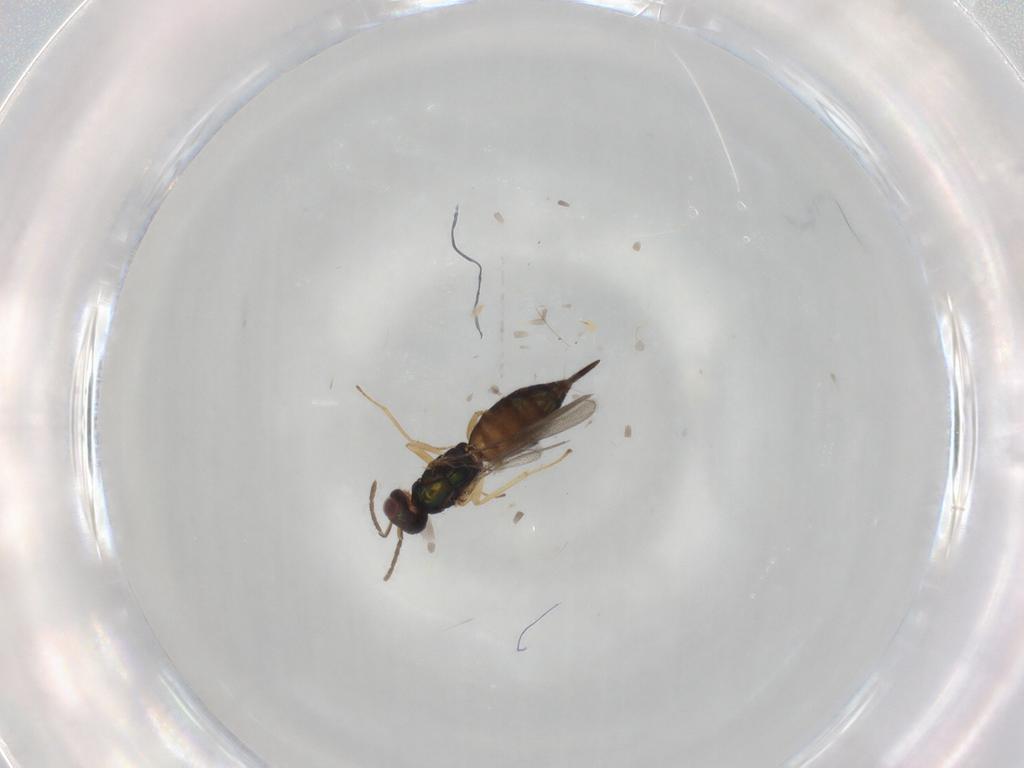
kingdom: Animalia
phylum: Arthropoda
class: Insecta
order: Hymenoptera
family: Eulophidae
